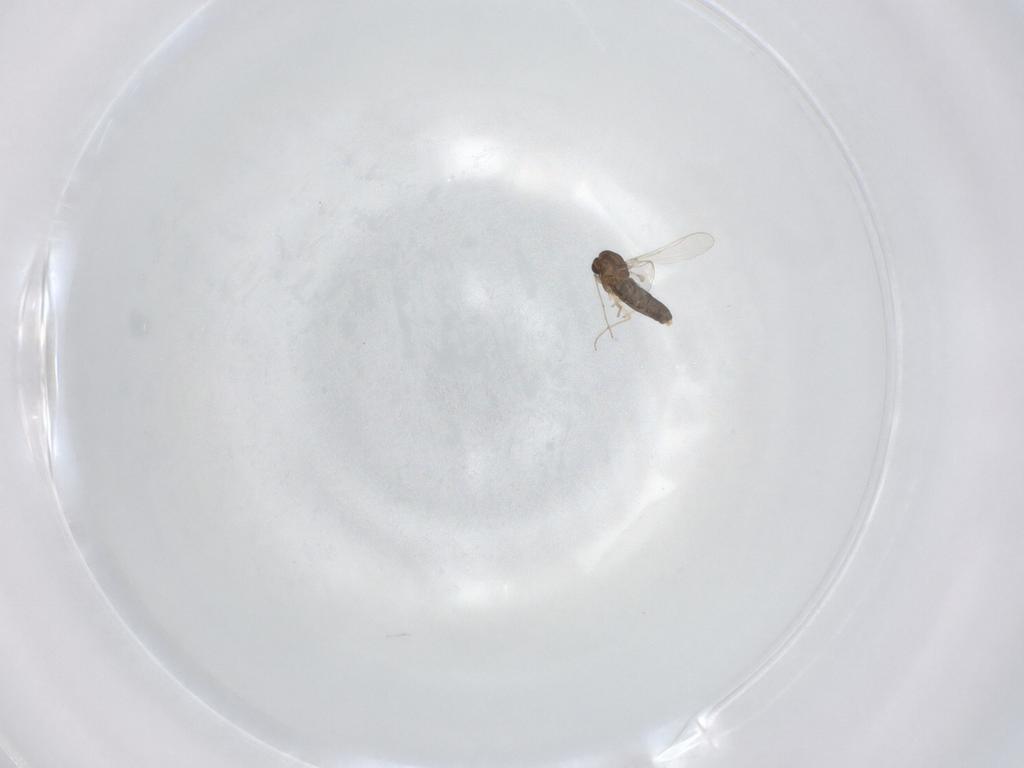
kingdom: Animalia
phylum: Arthropoda
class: Insecta
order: Diptera
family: Chironomidae
